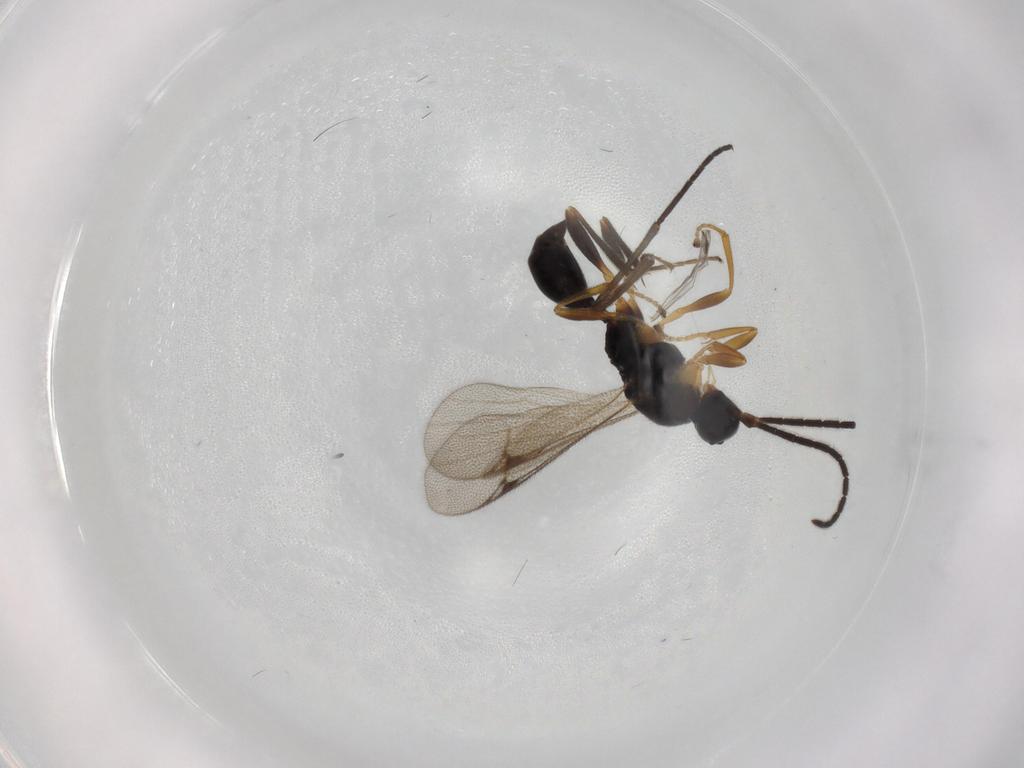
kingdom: Animalia
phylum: Arthropoda
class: Insecta
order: Hymenoptera
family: Proctotrupidae
